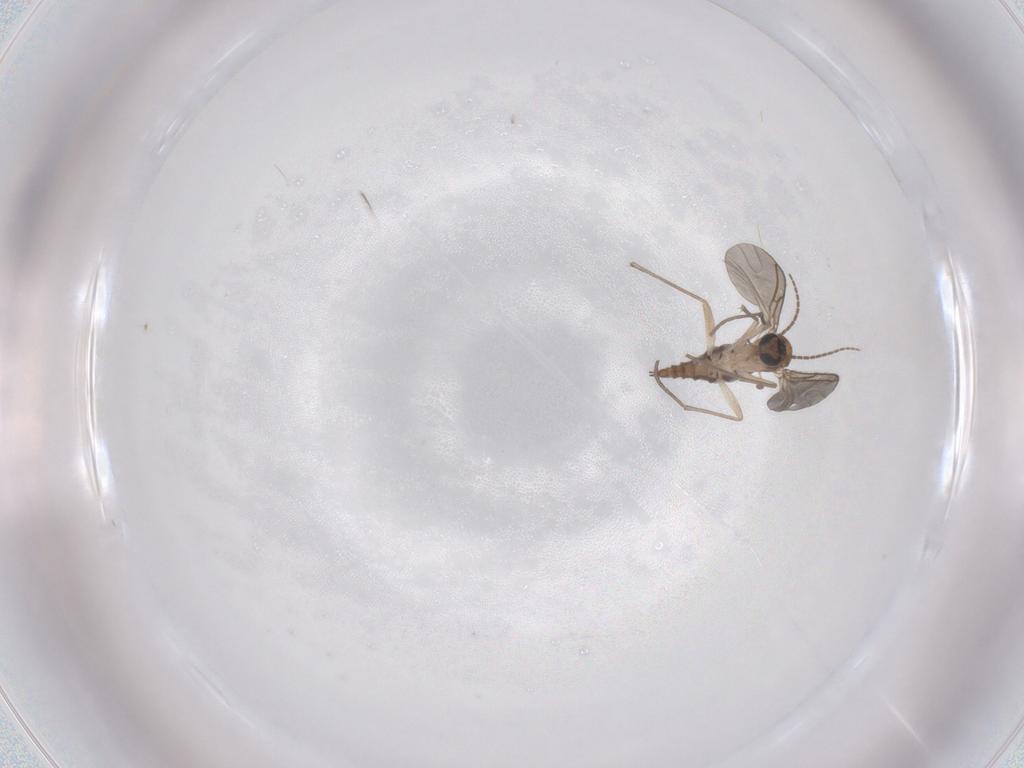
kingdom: Animalia
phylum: Arthropoda
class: Insecta
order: Diptera
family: Sciaridae
